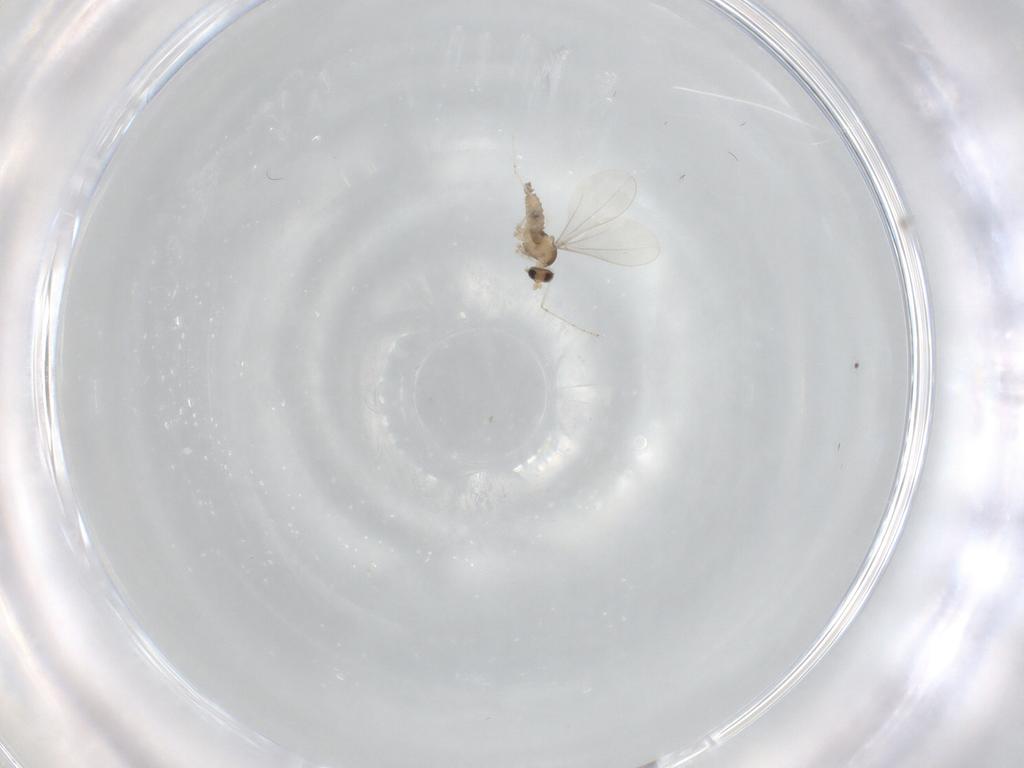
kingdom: Animalia
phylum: Arthropoda
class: Insecta
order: Diptera
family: Cecidomyiidae
